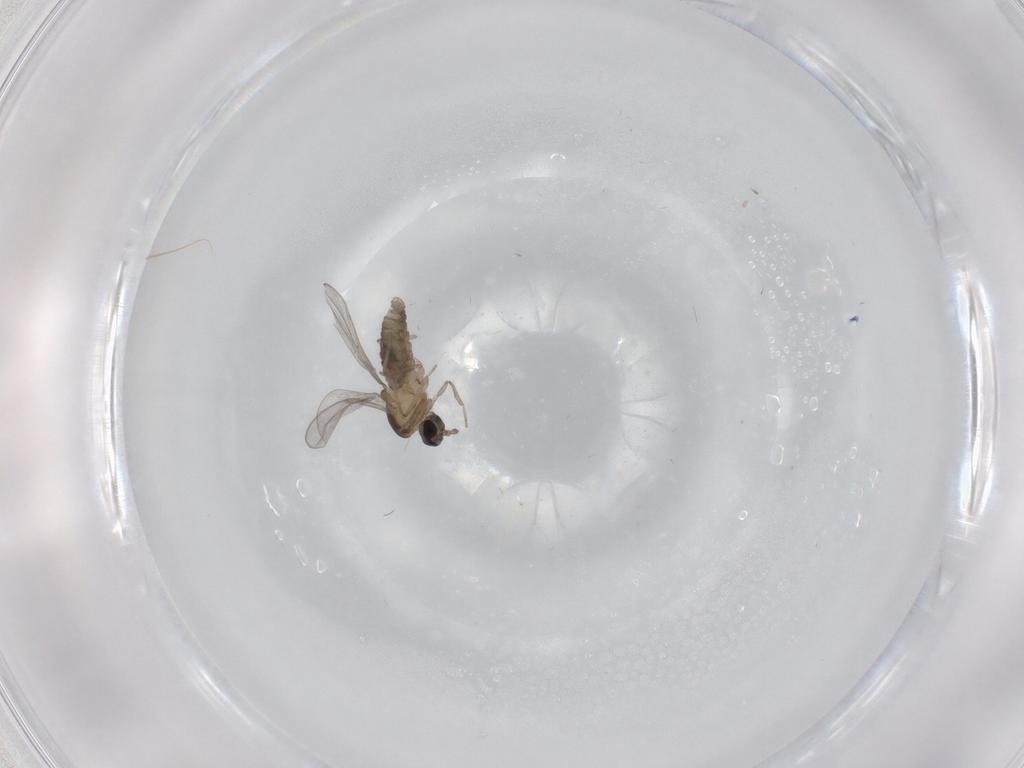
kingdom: Animalia
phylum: Arthropoda
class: Insecta
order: Diptera
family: Cecidomyiidae
